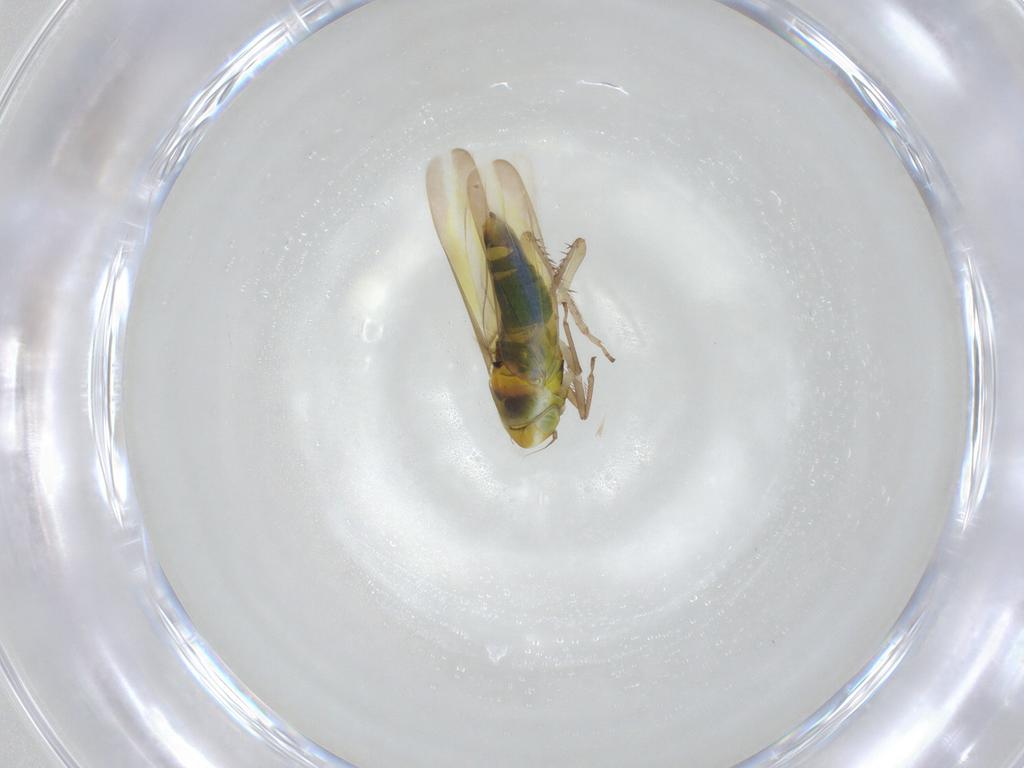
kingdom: Animalia
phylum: Arthropoda
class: Insecta
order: Hemiptera
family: Cicadellidae
